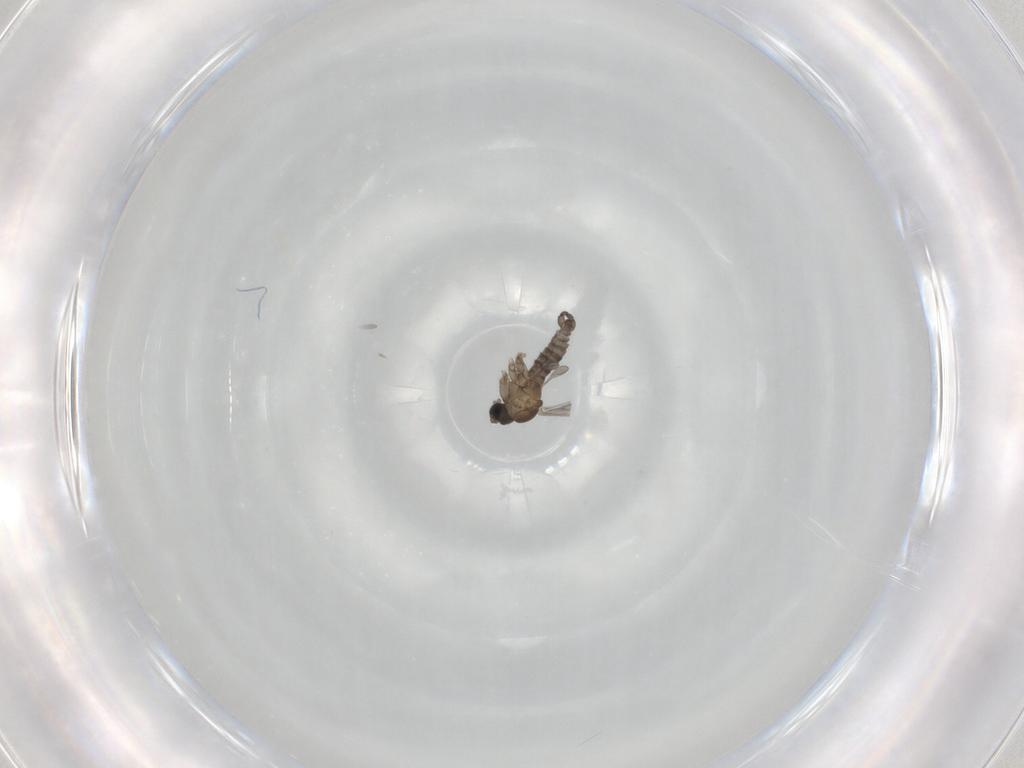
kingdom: Animalia
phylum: Arthropoda
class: Insecta
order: Diptera
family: Sciaridae
